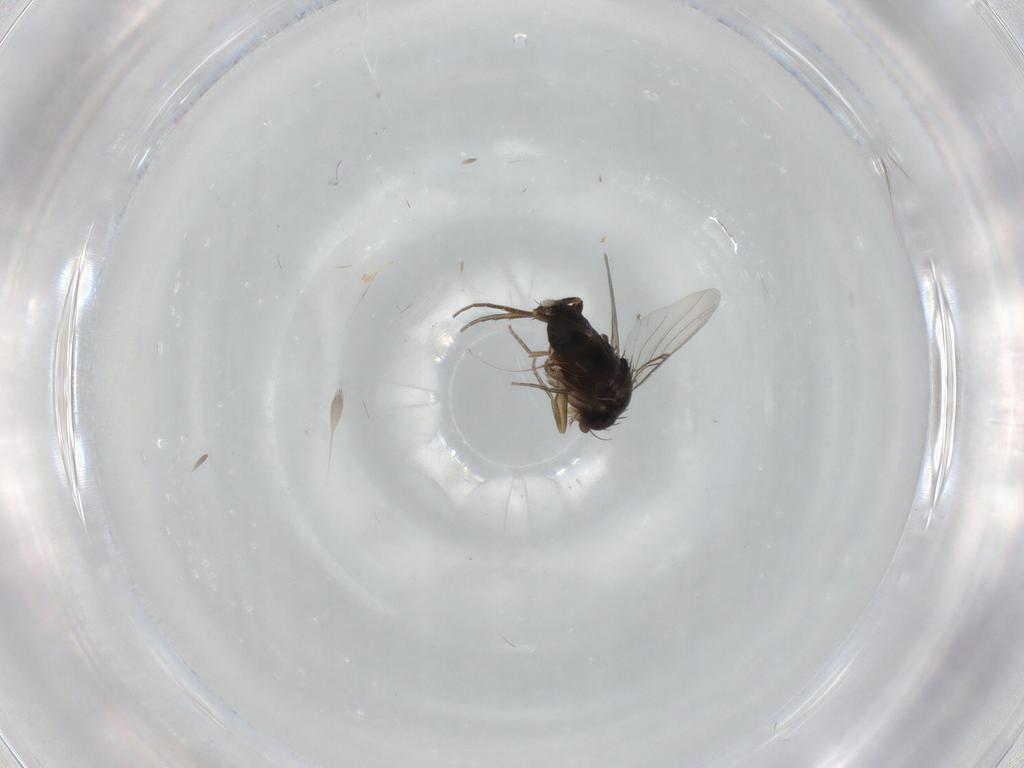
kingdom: Animalia
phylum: Arthropoda
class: Insecta
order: Diptera
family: Phoridae
